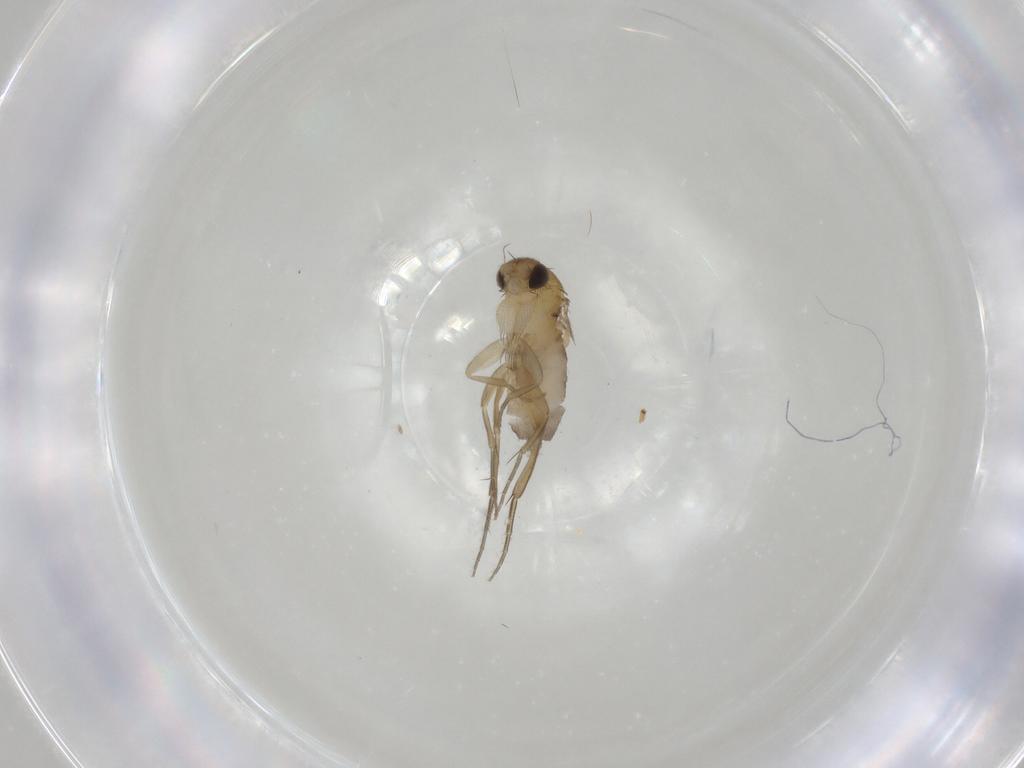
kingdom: Animalia
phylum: Arthropoda
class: Insecta
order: Diptera
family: Phoridae
